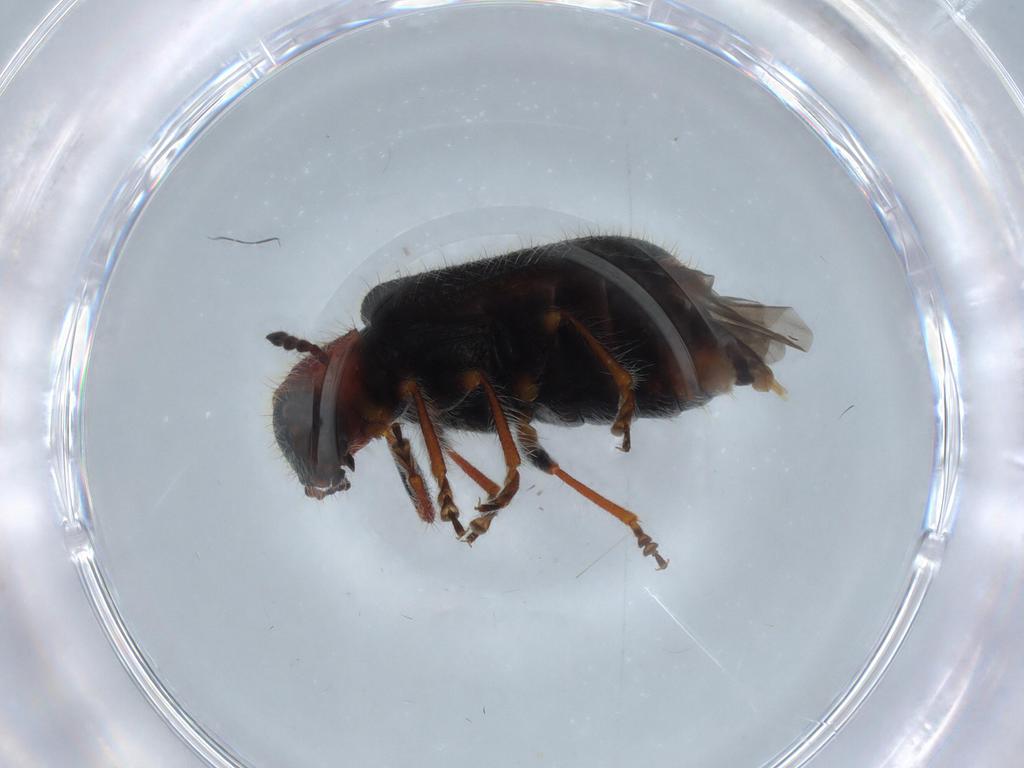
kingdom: Animalia
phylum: Arthropoda
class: Insecta
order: Coleoptera
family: Cleridae
